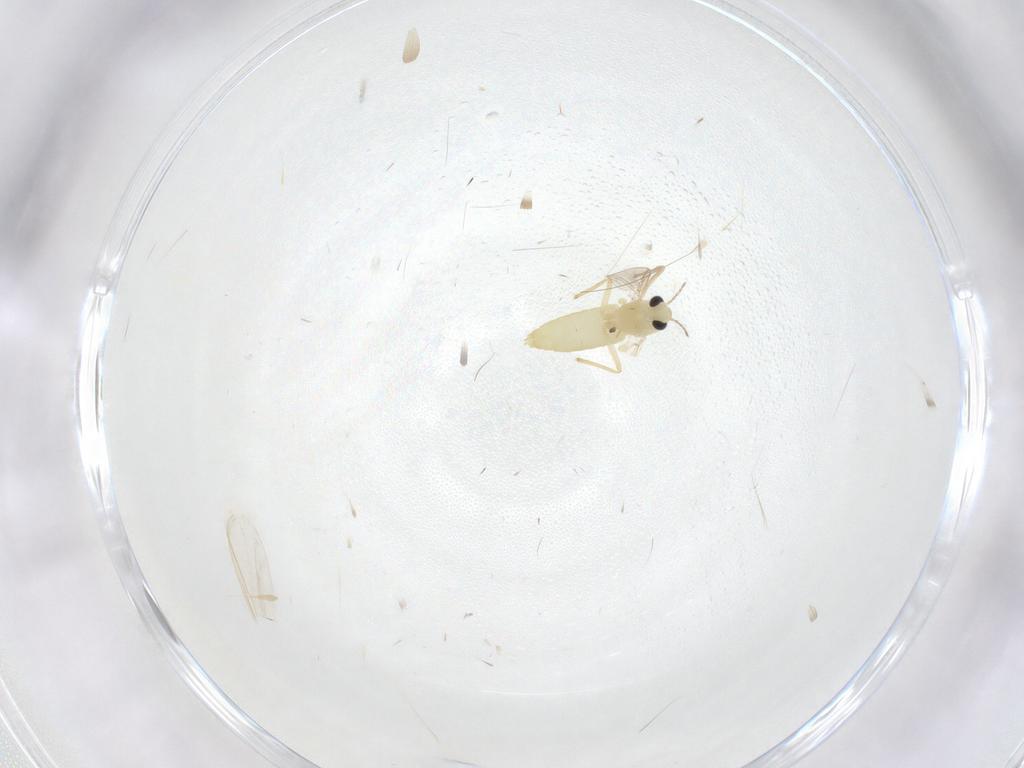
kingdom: Animalia
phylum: Arthropoda
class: Insecta
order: Diptera
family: Chironomidae
